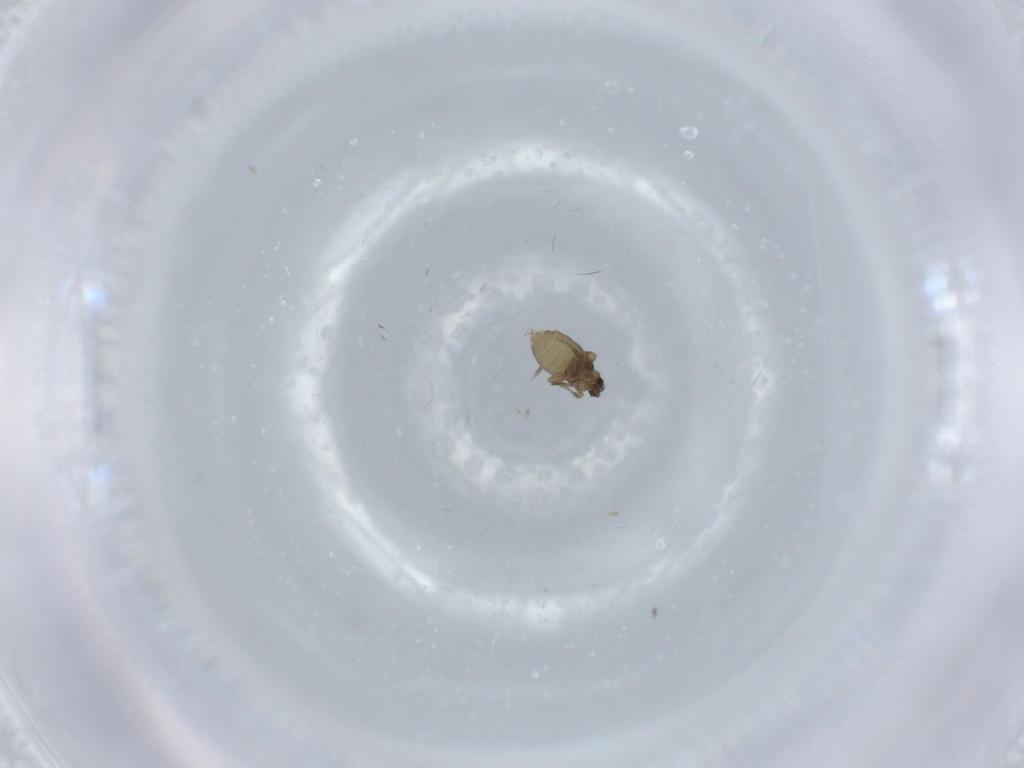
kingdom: Animalia
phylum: Arthropoda
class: Insecta
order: Diptera
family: Phoridae
